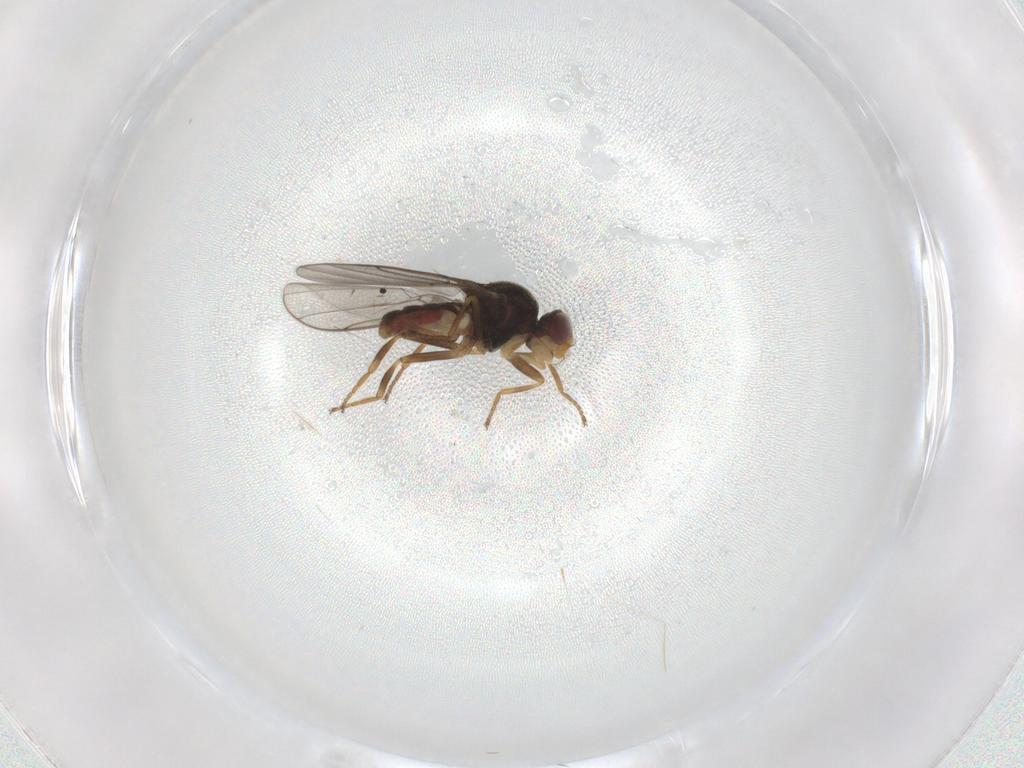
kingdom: Animalia
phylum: Arthropoda
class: Insecta
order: Diptera
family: Chloropidae
